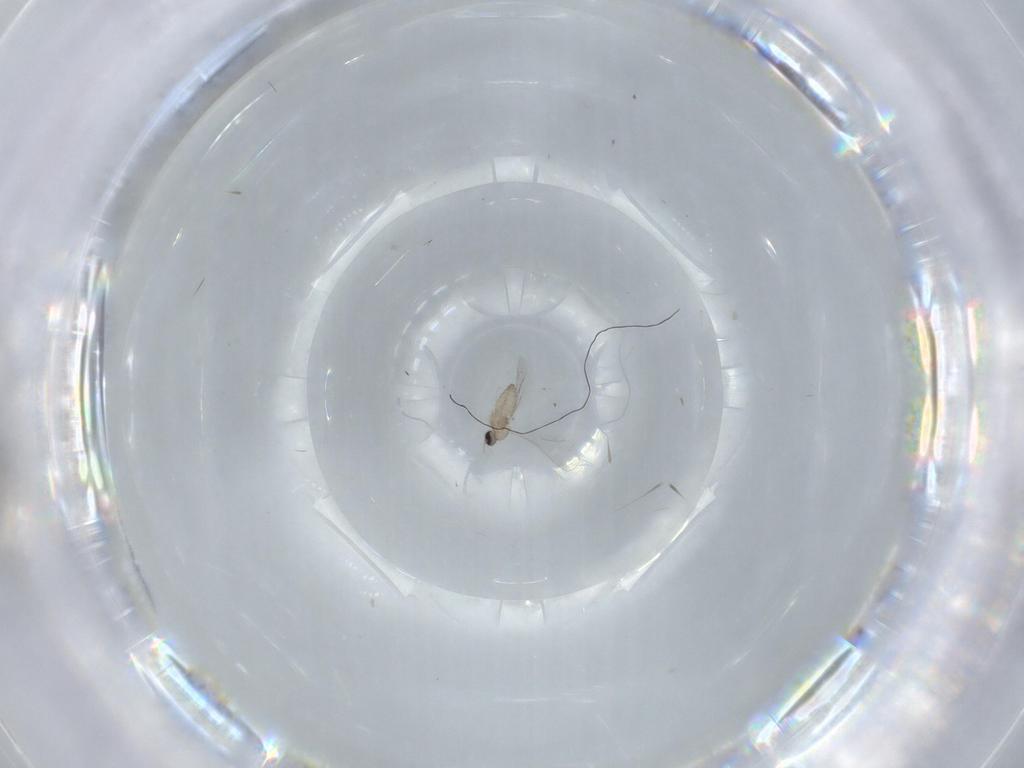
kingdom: Animalia
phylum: Arthropoda
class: Insecta
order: Diptera
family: Cecidomyiidae
